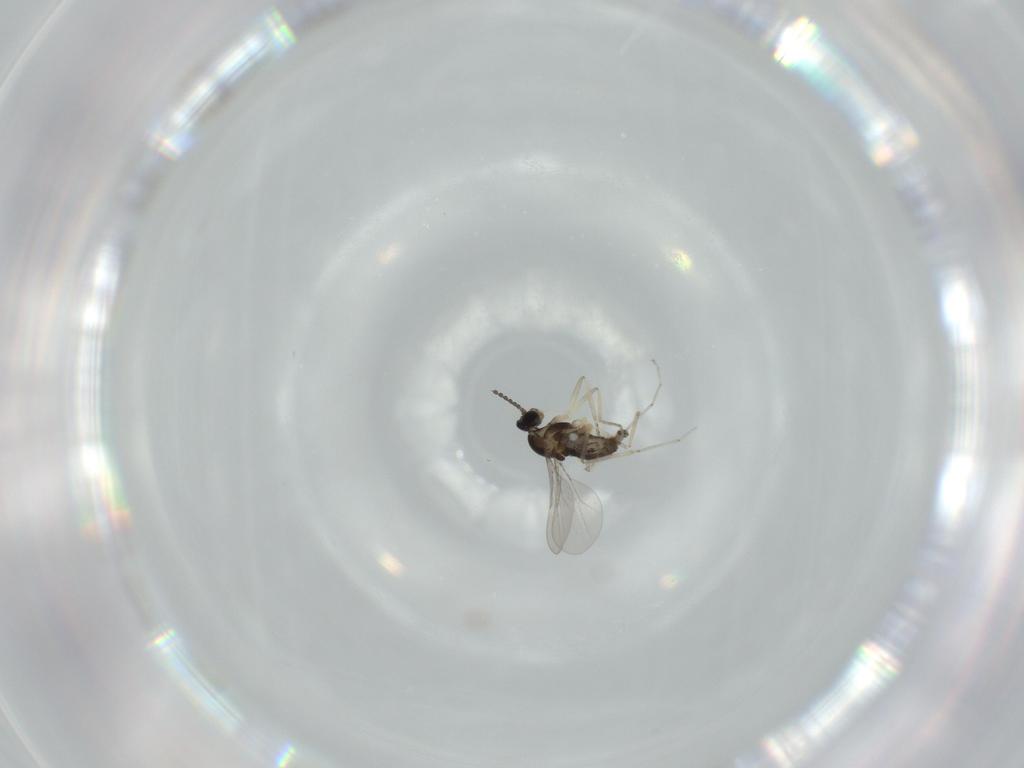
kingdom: Animalia
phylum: Arthropoda
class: Insecta
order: Diptera
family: Cecidomyiidae
